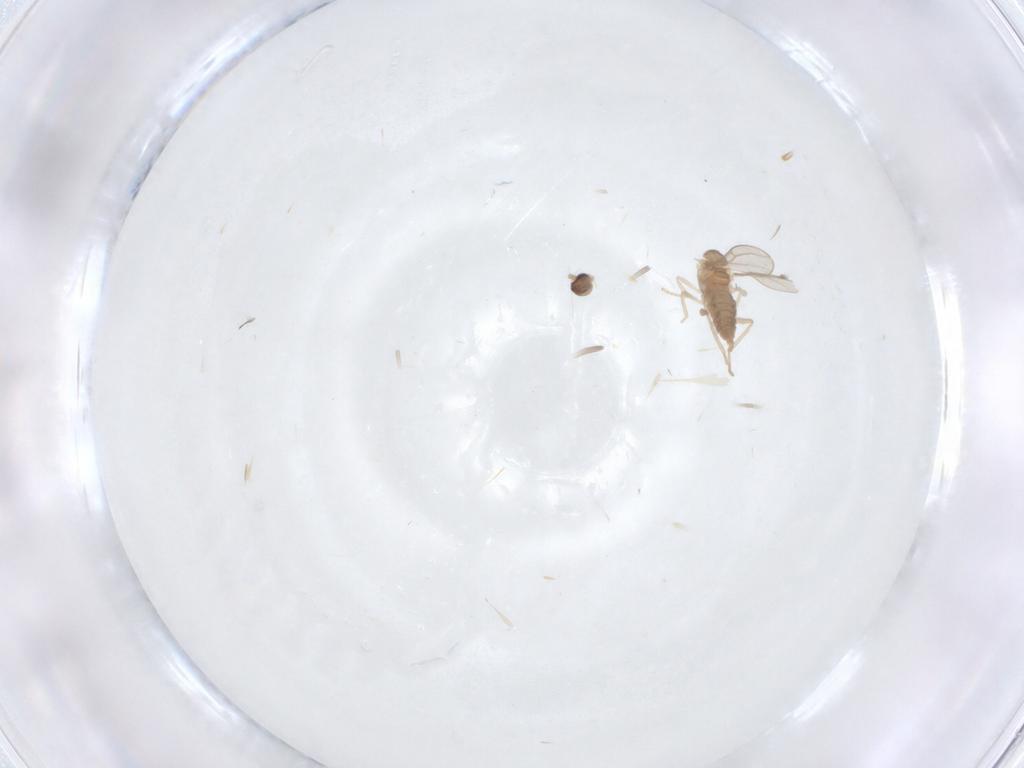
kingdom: Animalia
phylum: Arthropoda
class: Insecta
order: Diptera
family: Cecidomyiidae
